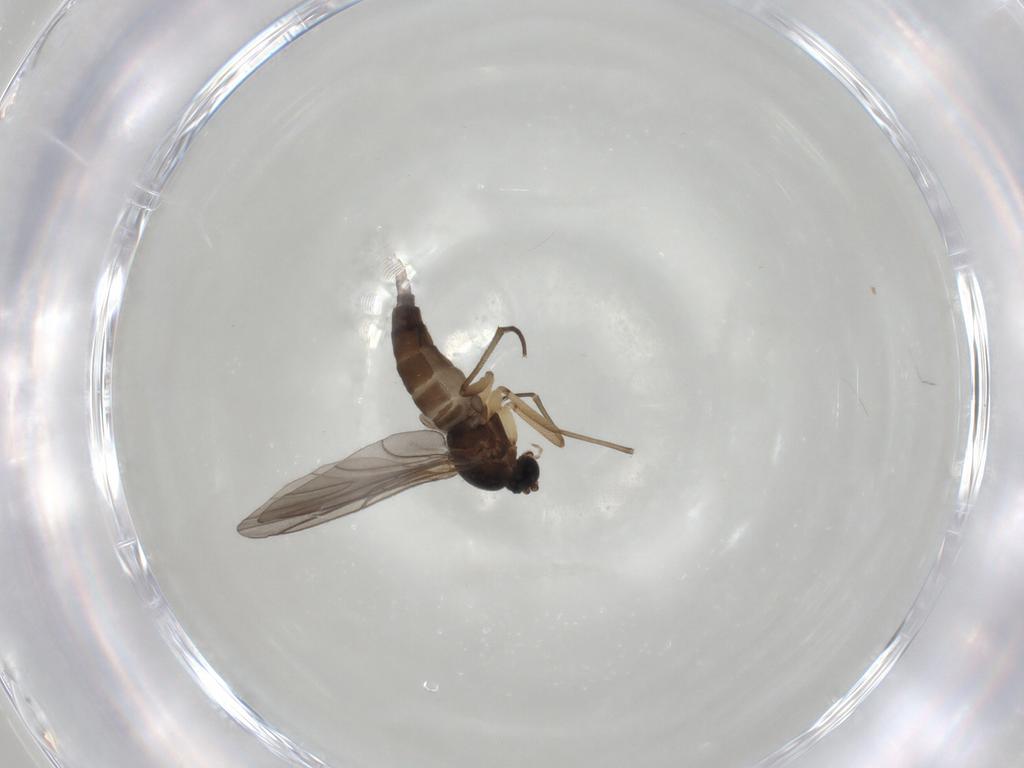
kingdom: Animalia
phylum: Arthropoda
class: Insecta
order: Diptera
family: Sciaridae
